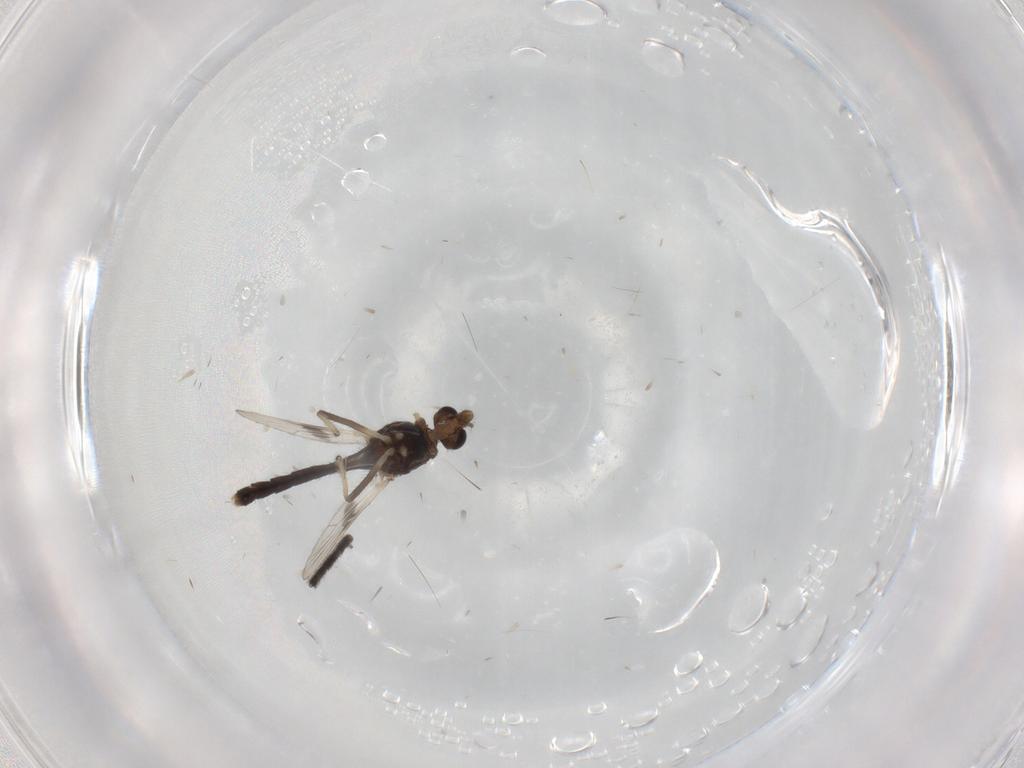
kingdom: Animalia
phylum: Arthropoda
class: Insecta
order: Diptera
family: Chironomidae
